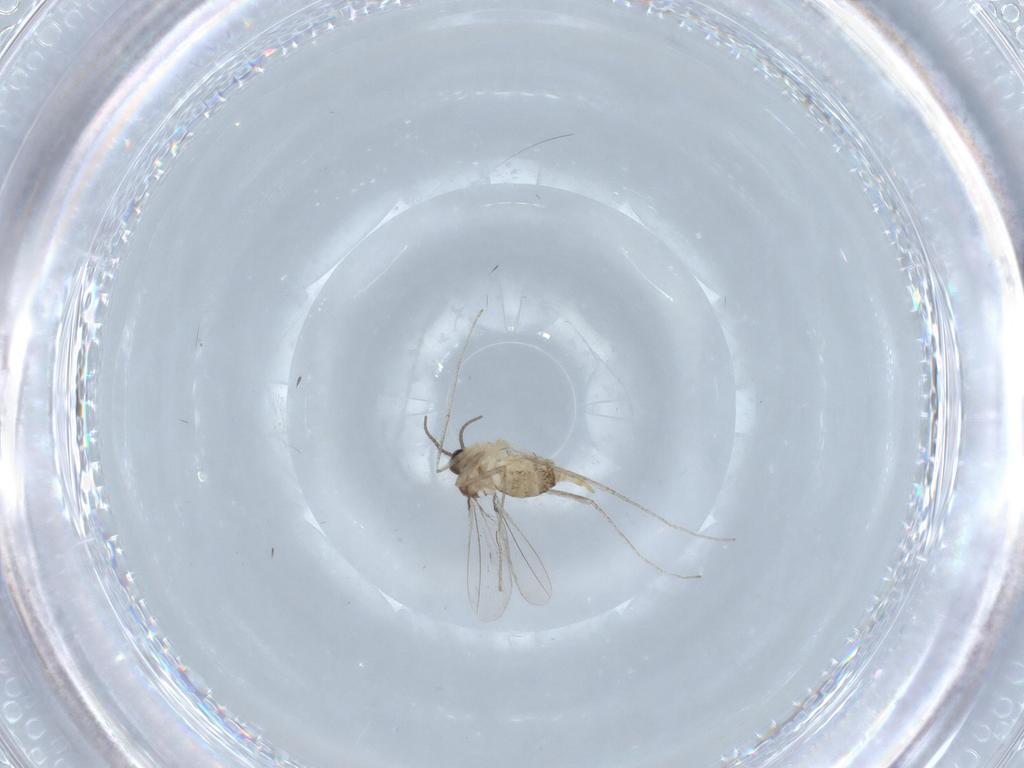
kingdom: Animalia
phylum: Arthropoda
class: Insecta
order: Diptera
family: Cecidomyiidae
